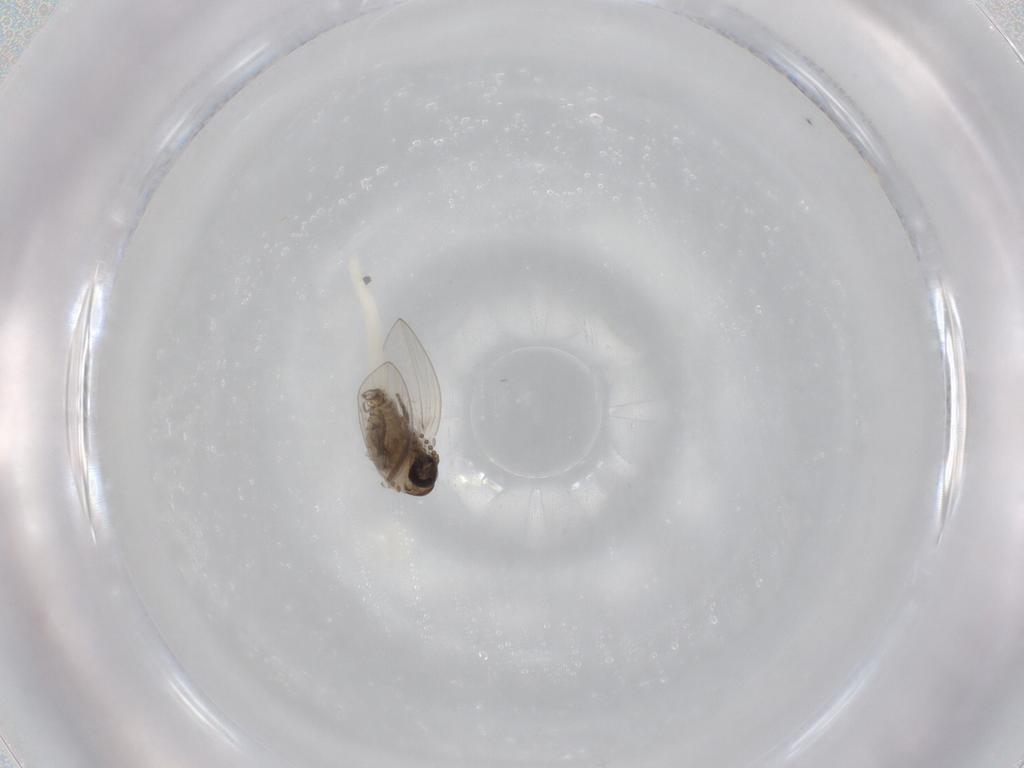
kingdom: Animalia
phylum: Arthropoda
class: Insecta
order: Diptera
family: Psychodidae
